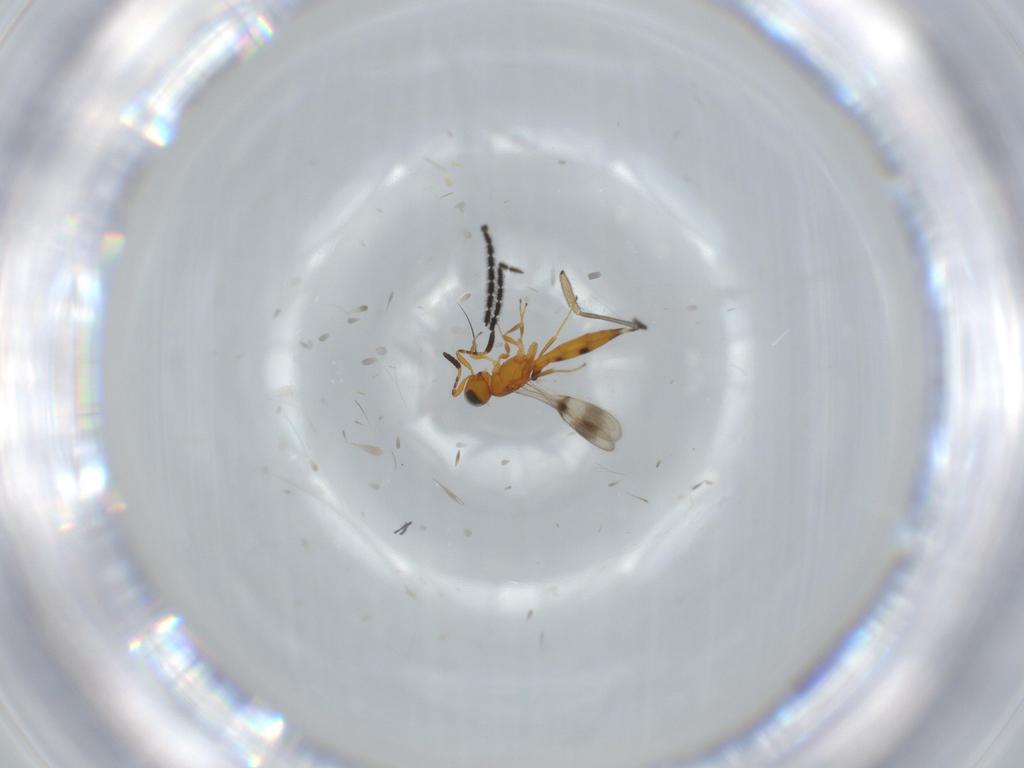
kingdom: Animalia
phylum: Arthropoda
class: Insecta
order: Hymenoptera
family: Scelionidae
